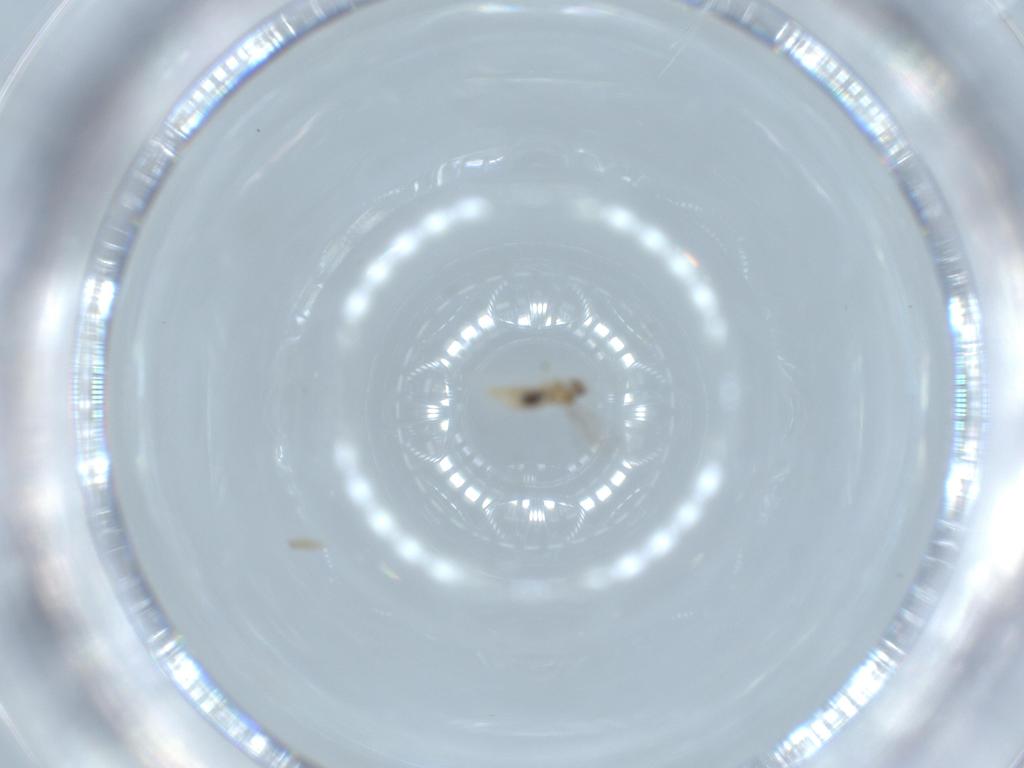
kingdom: Animalia
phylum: Arthropoda
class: Insecta
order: Diptera
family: Cecidomyiidae
